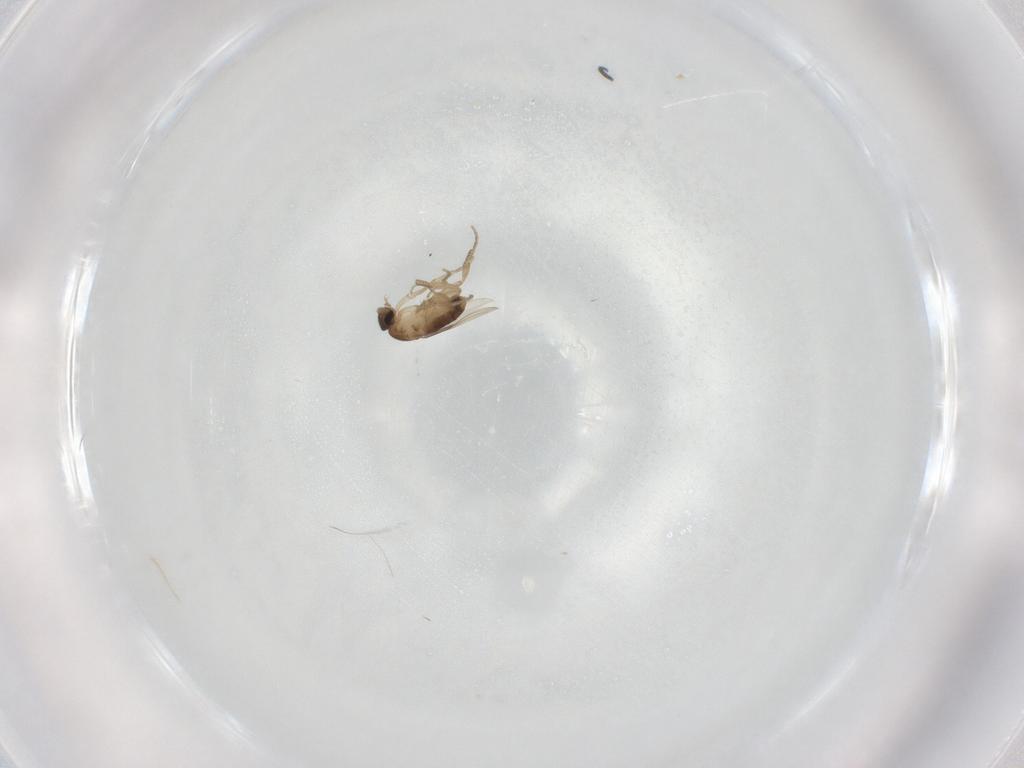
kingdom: Animalia
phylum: Arthropoda
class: Insecta
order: Diptera
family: Phoridae
